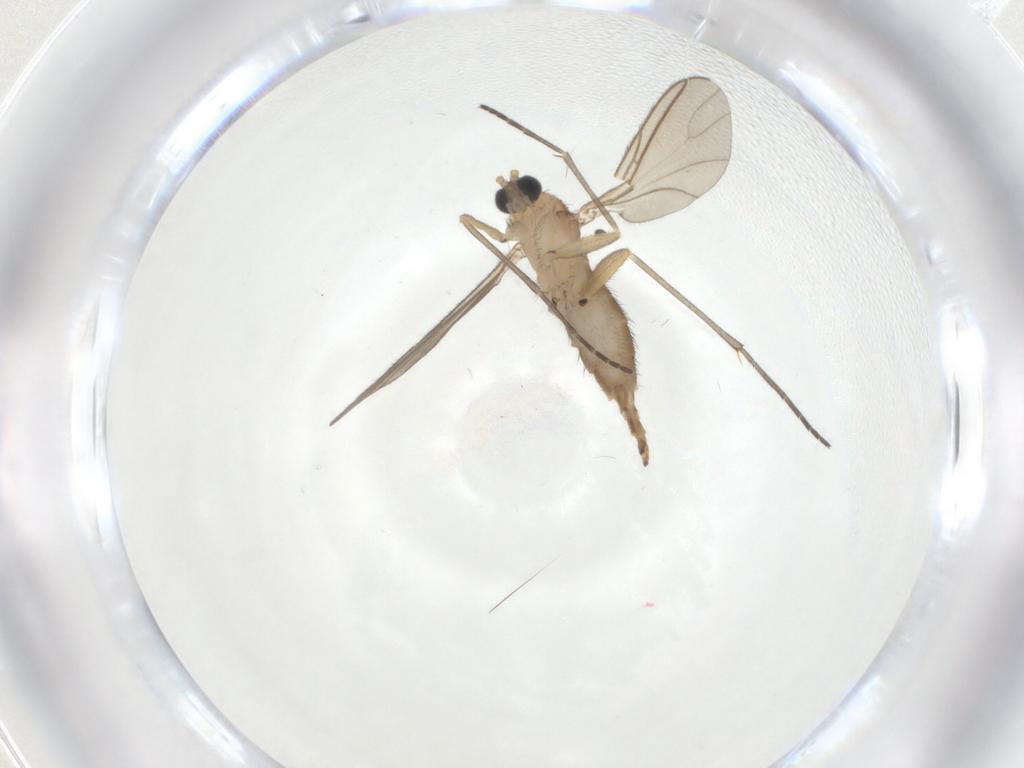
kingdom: Animalia
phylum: Arthropoda
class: Insecta
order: Diptera
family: Sciaridae
